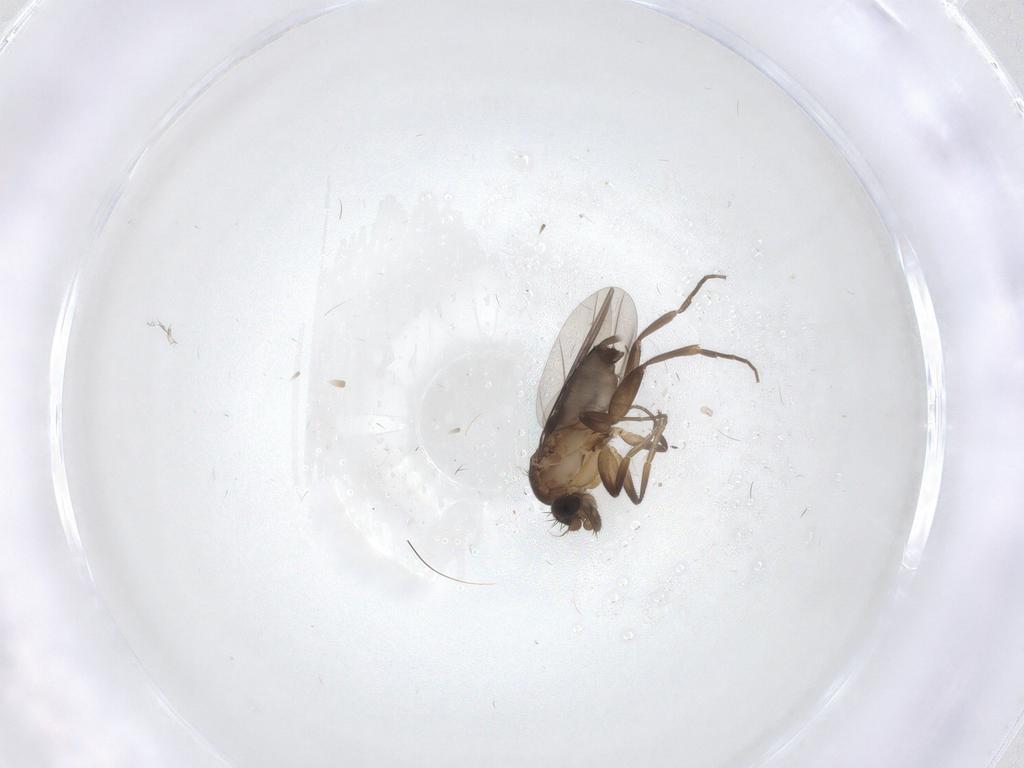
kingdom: Animalia
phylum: Arthropoda
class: Insecta
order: Diptera
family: Phoridae
